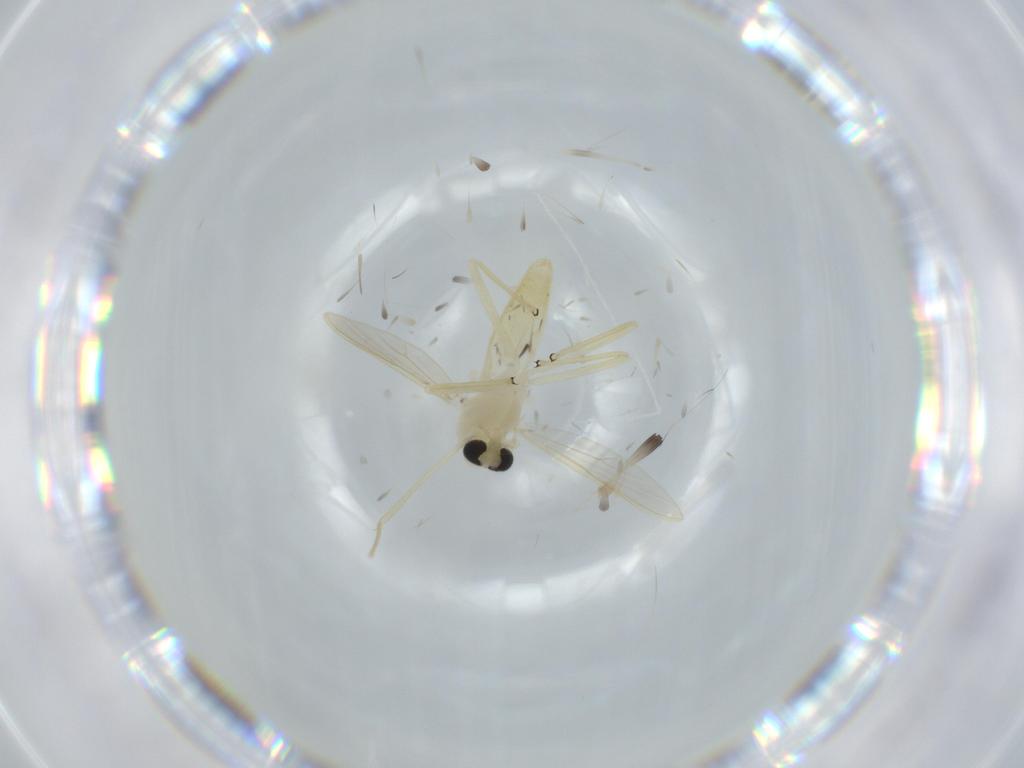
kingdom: Animalia
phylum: Arthropoda
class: Insecta
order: Diptera
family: Chironomidae
